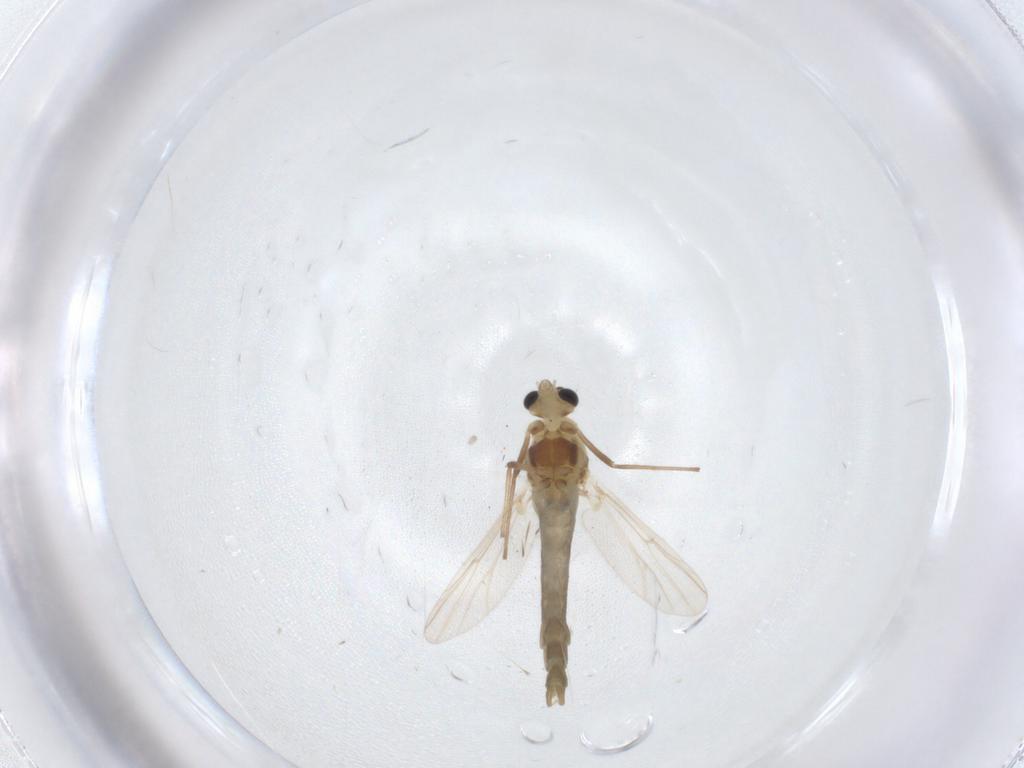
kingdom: Animalia
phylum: Arthropoda
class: Insecta
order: Diptera
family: Chironomidae
